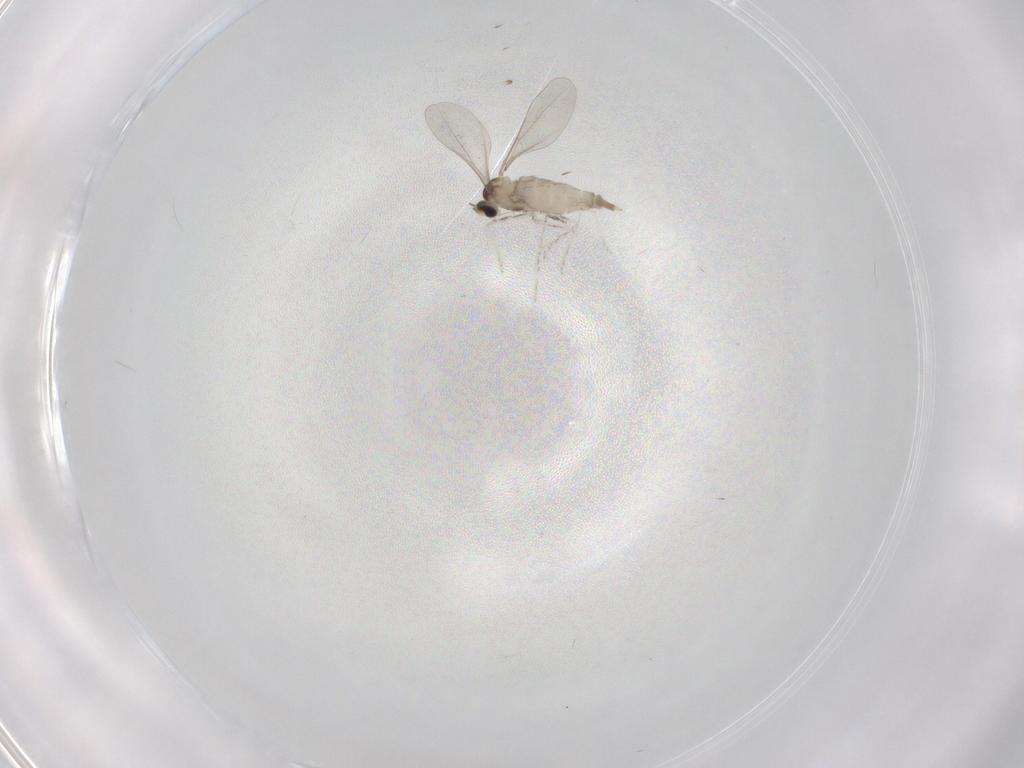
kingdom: Animalia
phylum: Arthropoda
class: Insecta
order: Diptera
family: Cecidomyiidae
